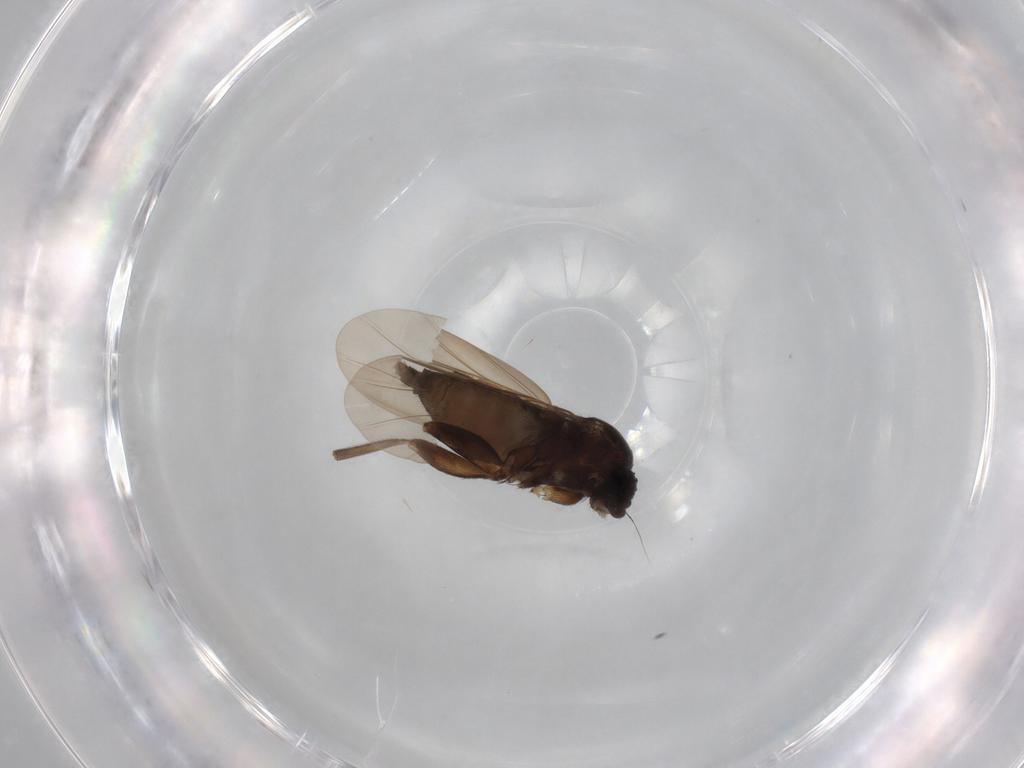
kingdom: Animalia
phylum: Arthropoda
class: Insecta
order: Diptera
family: Phoridae
